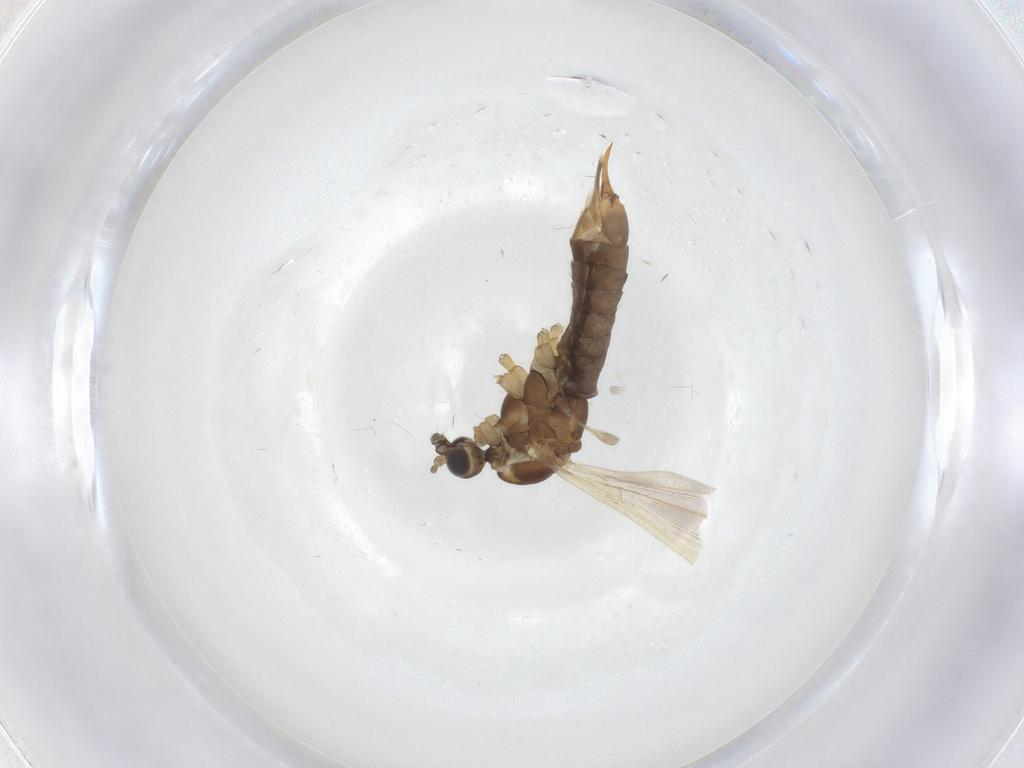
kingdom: Animalia
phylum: Arthropoda
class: Insecta
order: Diptera
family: Limoniidae
